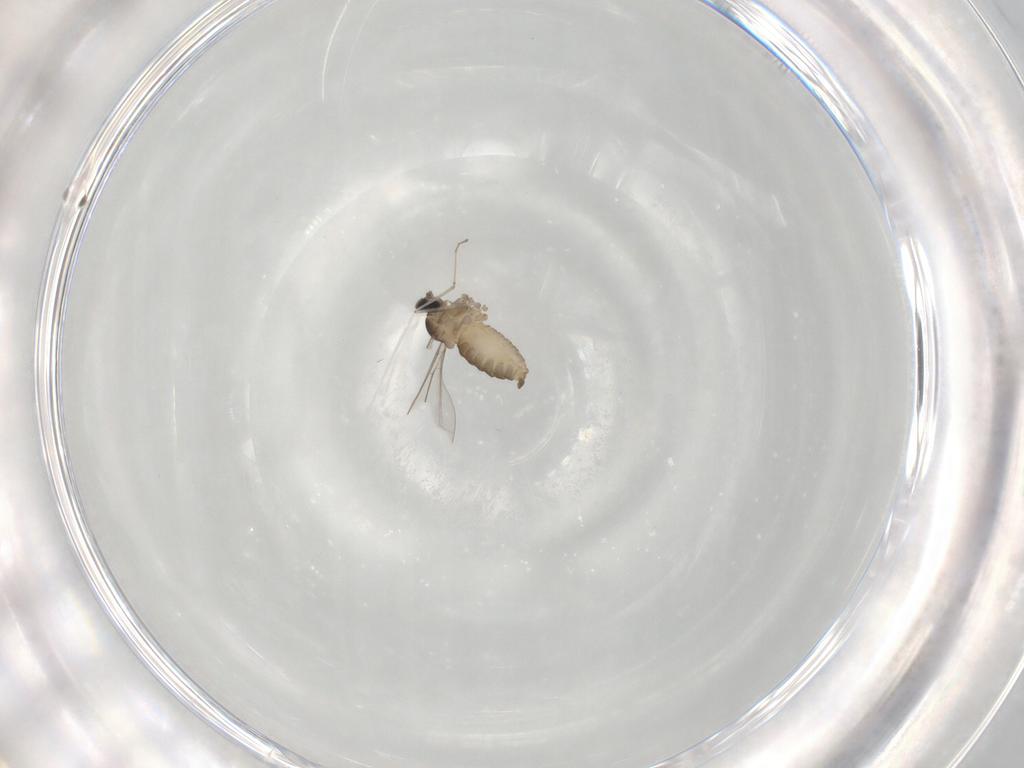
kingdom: Animalia
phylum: Arthropoda
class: Insecta
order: Diptera
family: Cecidomyiidae
